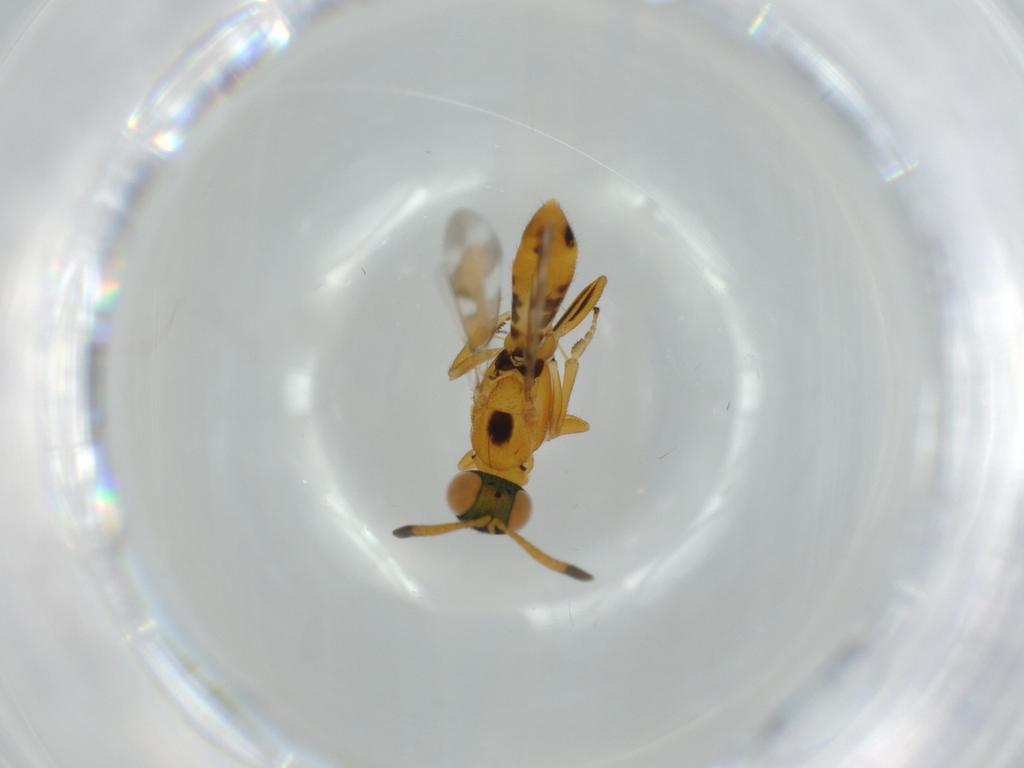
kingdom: Animalia
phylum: Arthropoda
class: Insecta
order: Hymenoptera
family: Eupelmidae
